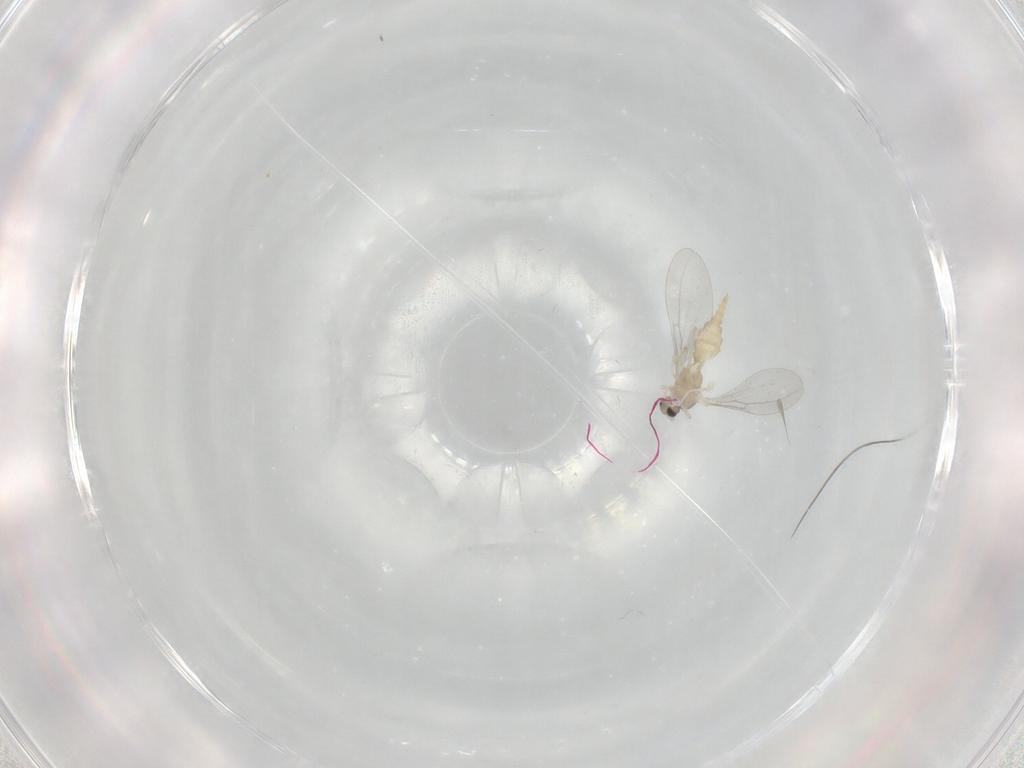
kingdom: Animalia
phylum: Arthropoda
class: Insecta
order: Diptera
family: Cecidomyiidae
